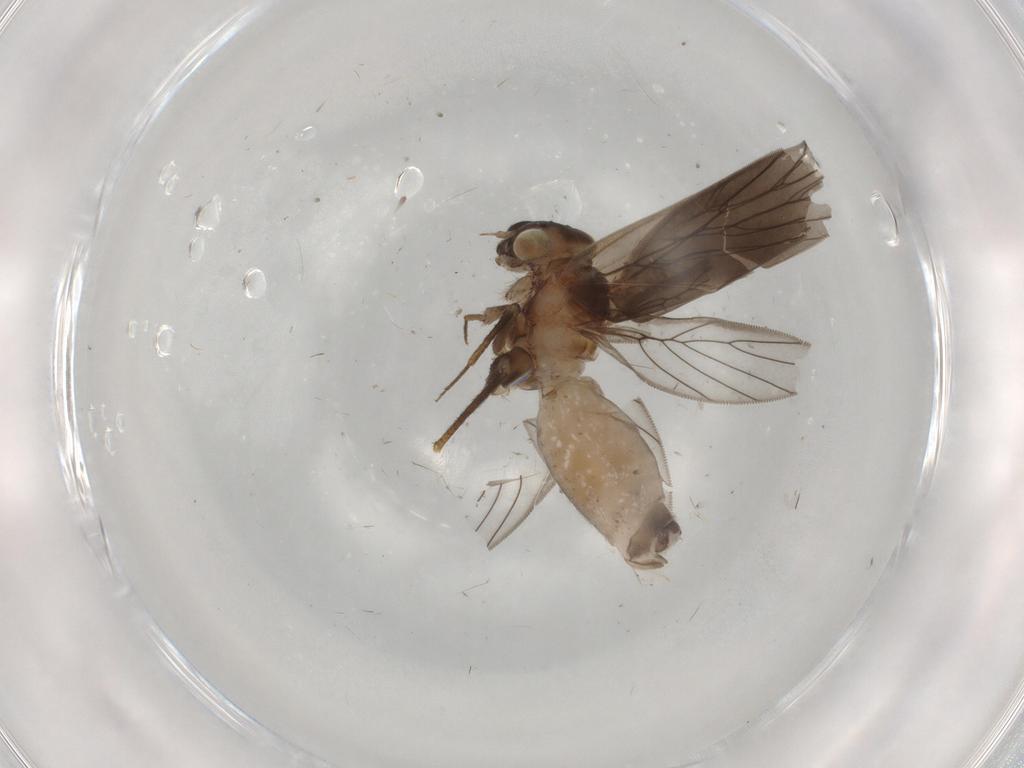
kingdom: Animalia
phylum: Arthropoda
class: Insecta
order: Psocodea
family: Lepidopsocidae
